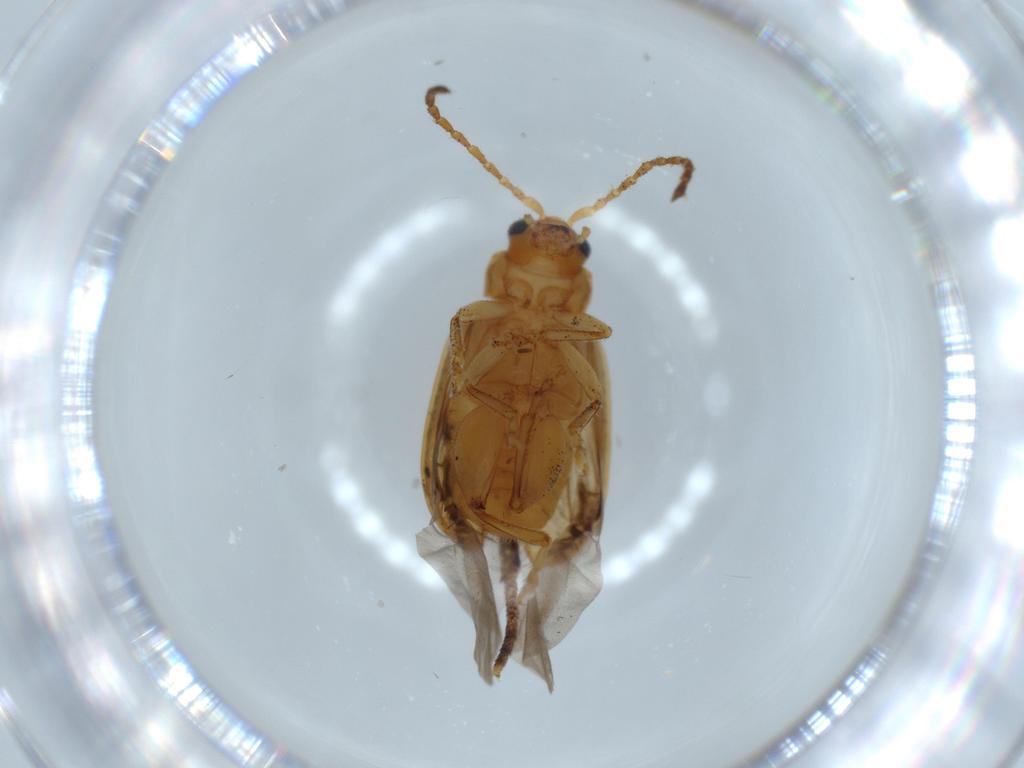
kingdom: Animalia
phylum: Arthropoda
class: Insecta
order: Coleoptera
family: Chrysomelidae
